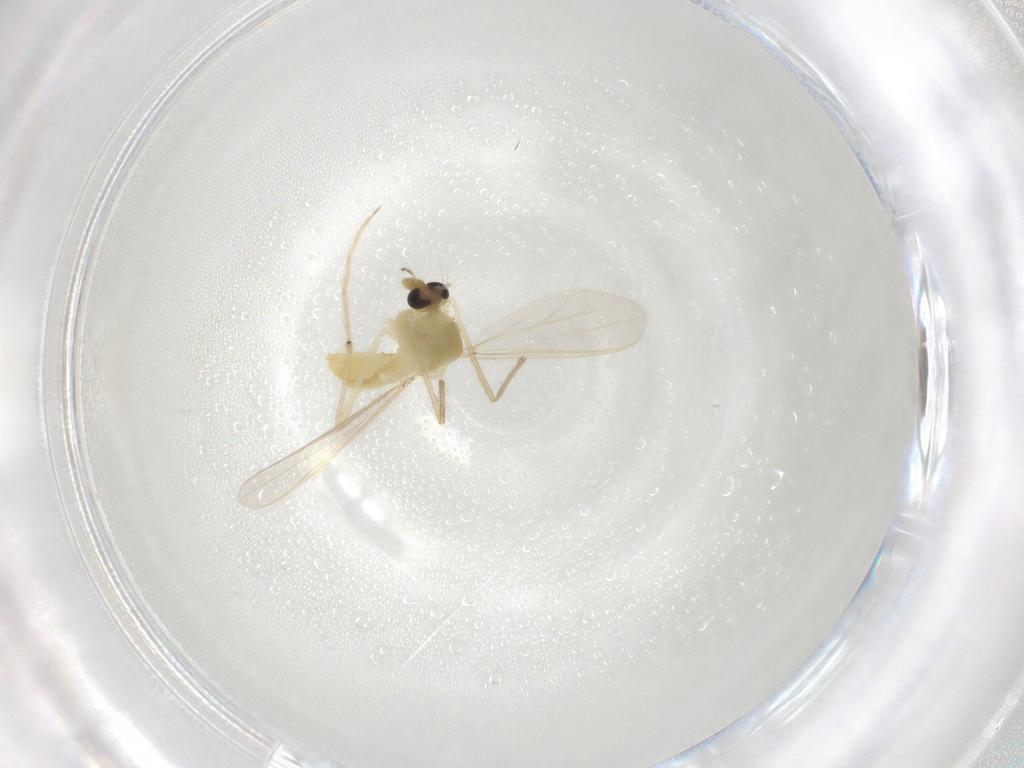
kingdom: Animalia
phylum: Arthropoda
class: Insecta
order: Diptera
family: Chironomidae
